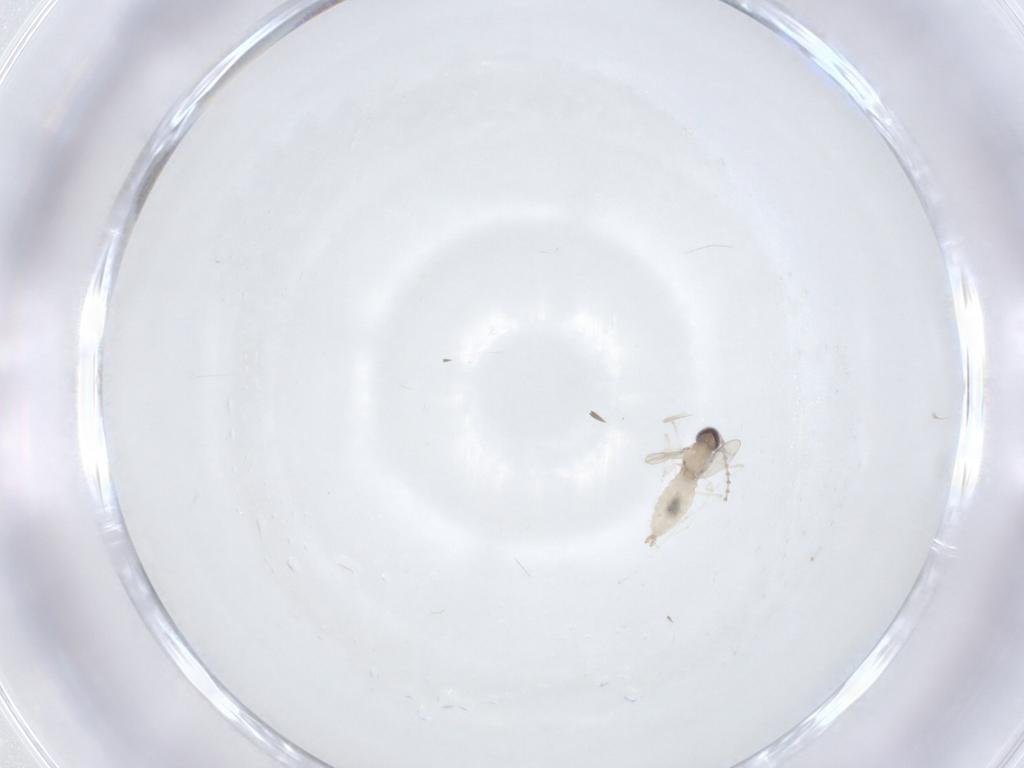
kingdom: Animalia
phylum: Arthropoda
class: Insecta
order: Diptera
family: Cecidomyiidae
